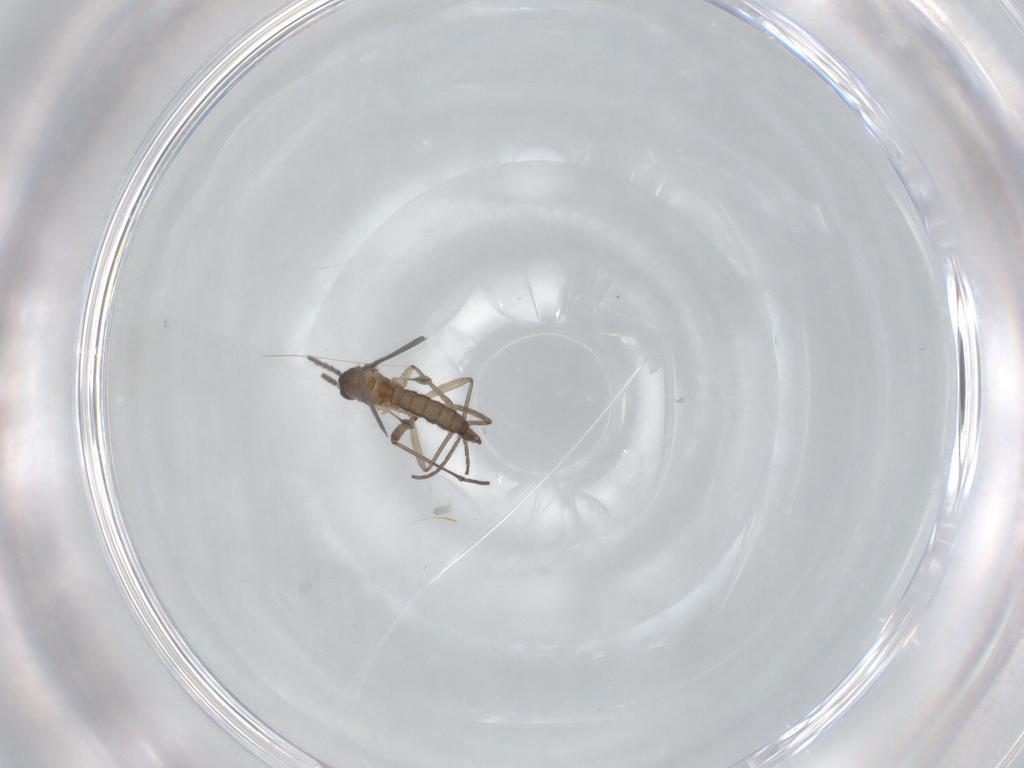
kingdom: Animalia
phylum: Arthropoda
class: Insecta
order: Diptera
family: Sciaridae
